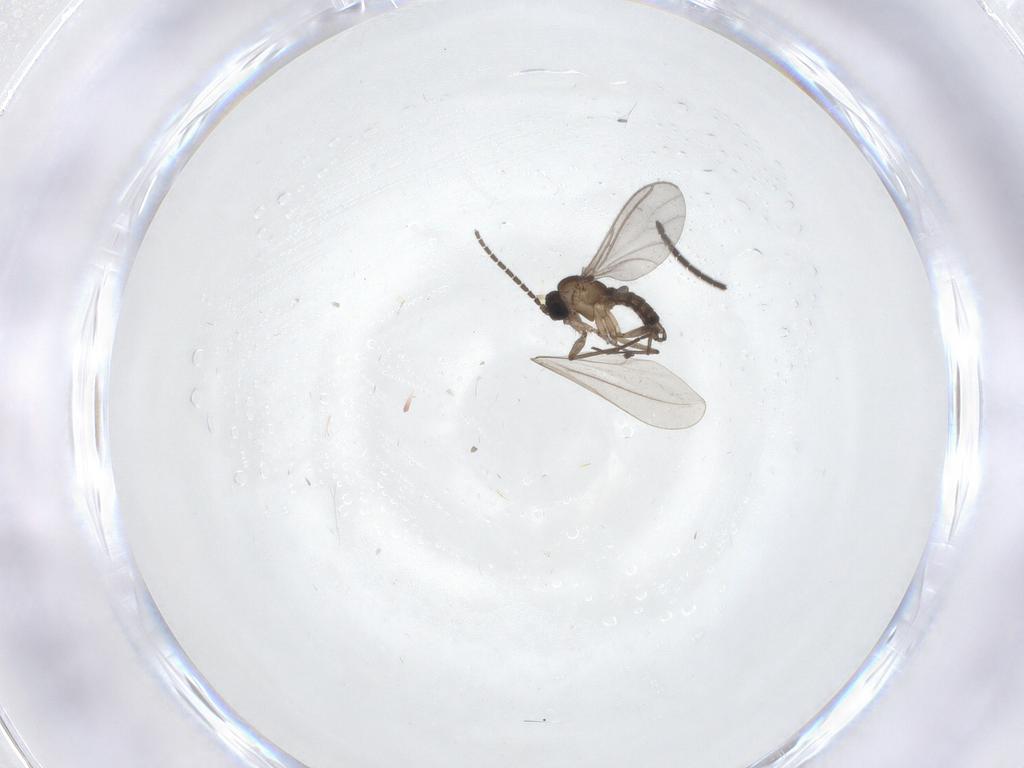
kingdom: Animalia
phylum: Arthropoda
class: Insecta
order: Diptera
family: Sciaridae
